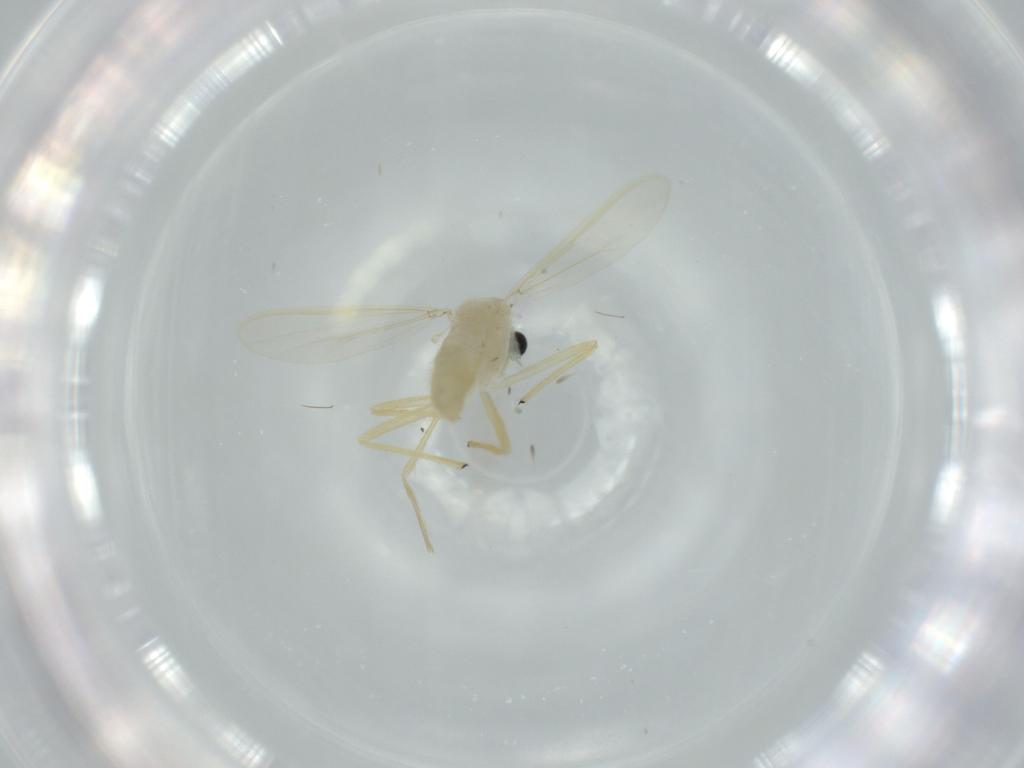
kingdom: Animalia
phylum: Arthropoda
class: Insecta
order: Diptera
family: Chironomidae
